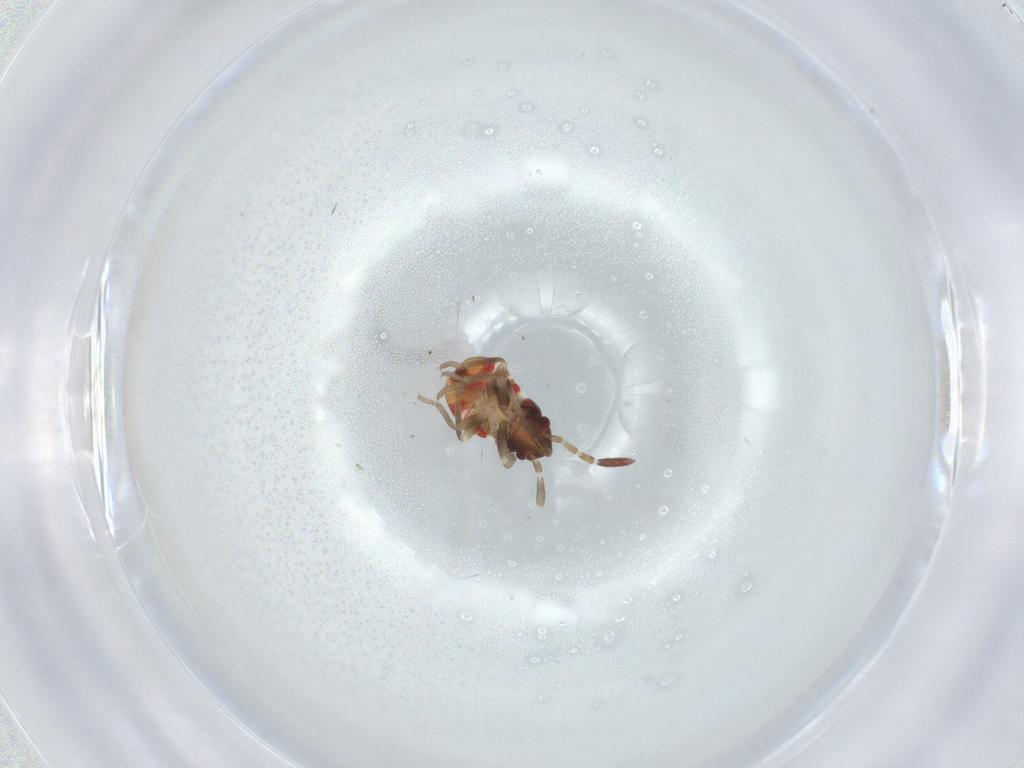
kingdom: Animalia
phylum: Arthropoda
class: Insecta
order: Hemiptera
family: Rhyparochromidae
